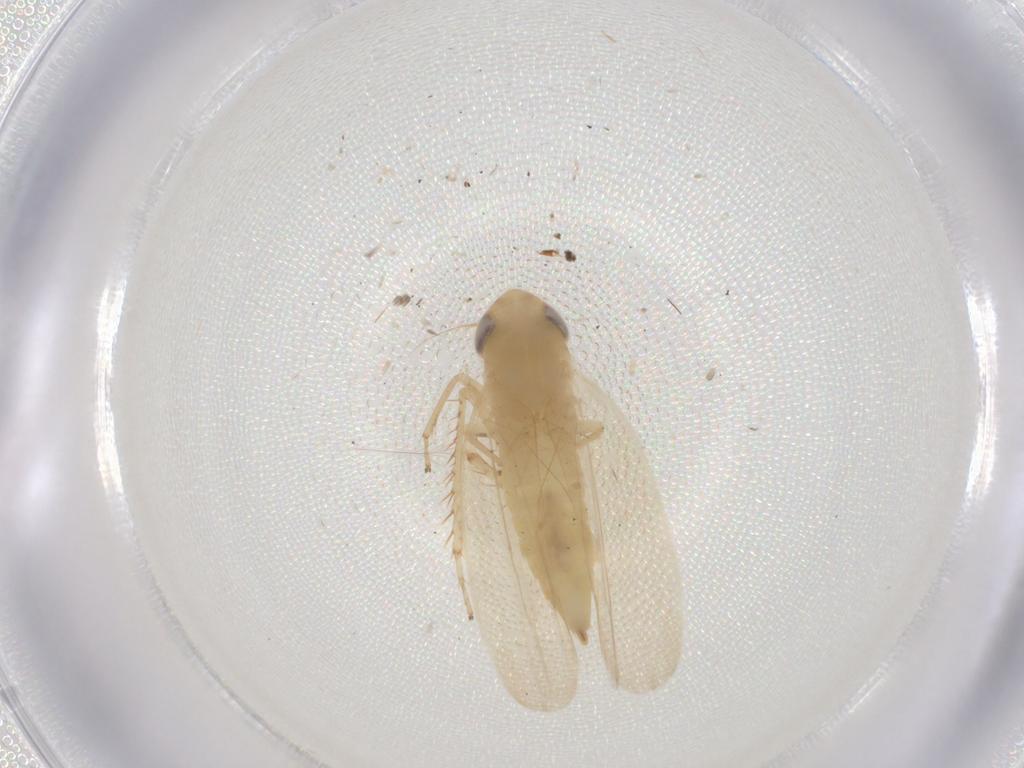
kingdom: Animalia
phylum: Arthropoda
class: Insecta
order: Hemiptera
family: Cicadellidae
